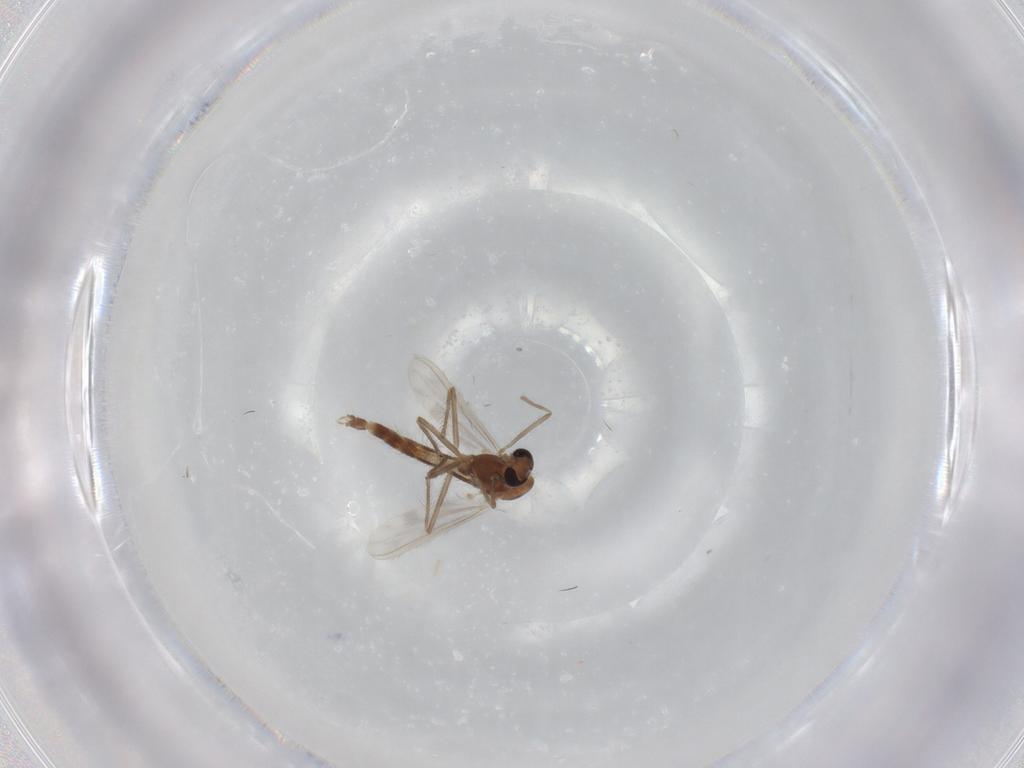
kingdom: Animalia
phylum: Arthropoda
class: Insecta
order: Diptera
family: Chironomidae
